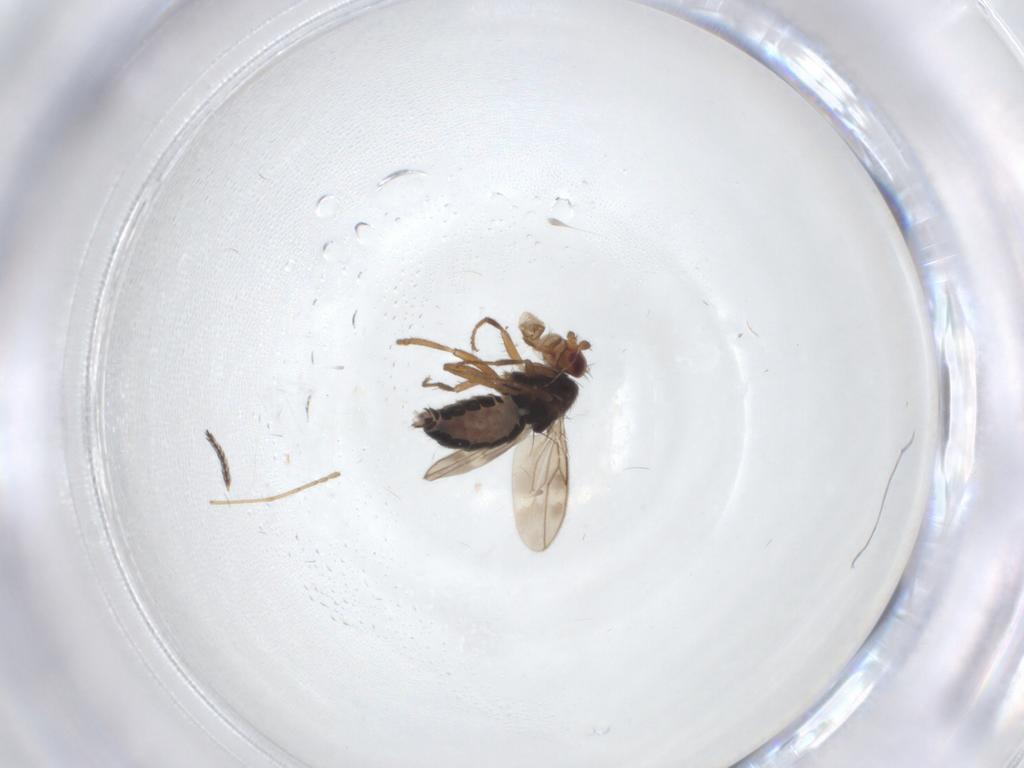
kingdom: Animalia
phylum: Arthropoda
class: Insecta
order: Diptera
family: Sphaeroceridae
